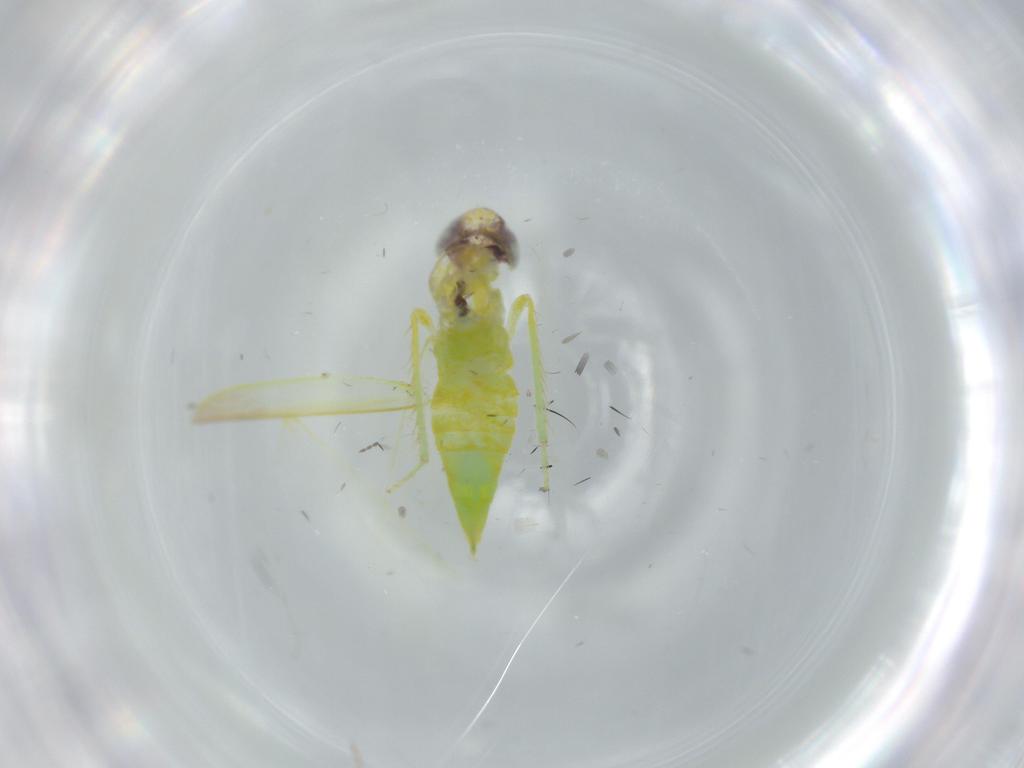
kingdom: Animalia
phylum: Arthropoda
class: Insecta
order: Hemiptera
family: Cicadellidae
